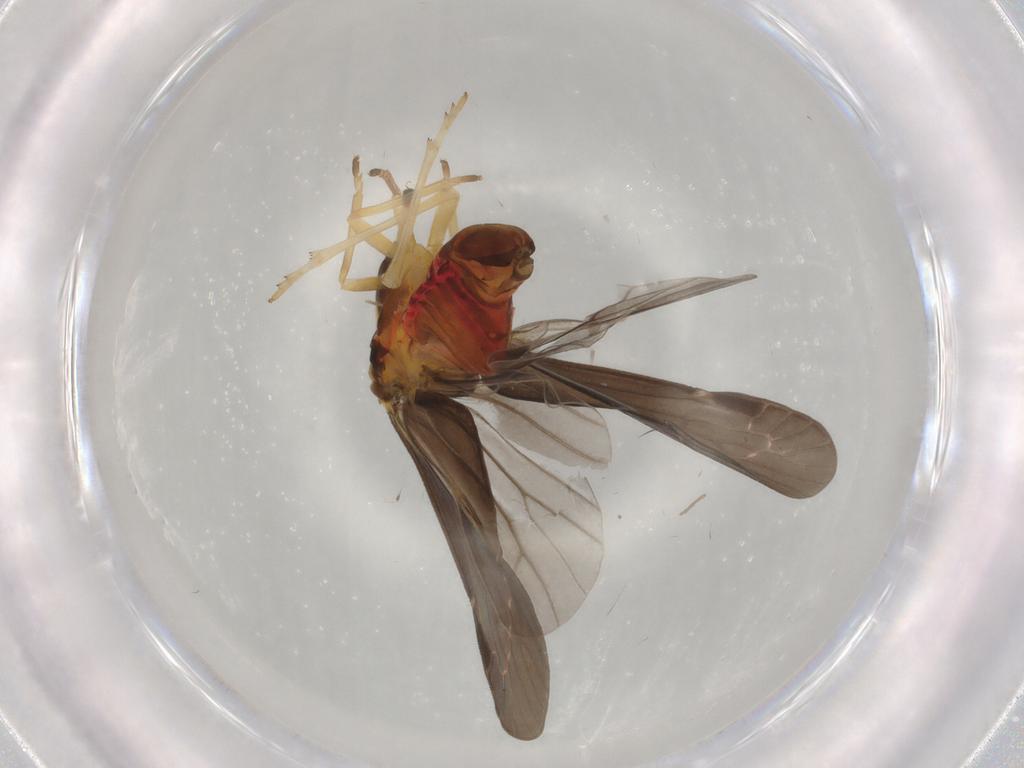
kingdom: Animalia
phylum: Arthropoda
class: Insecta
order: Hemiptera
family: Derbidae
